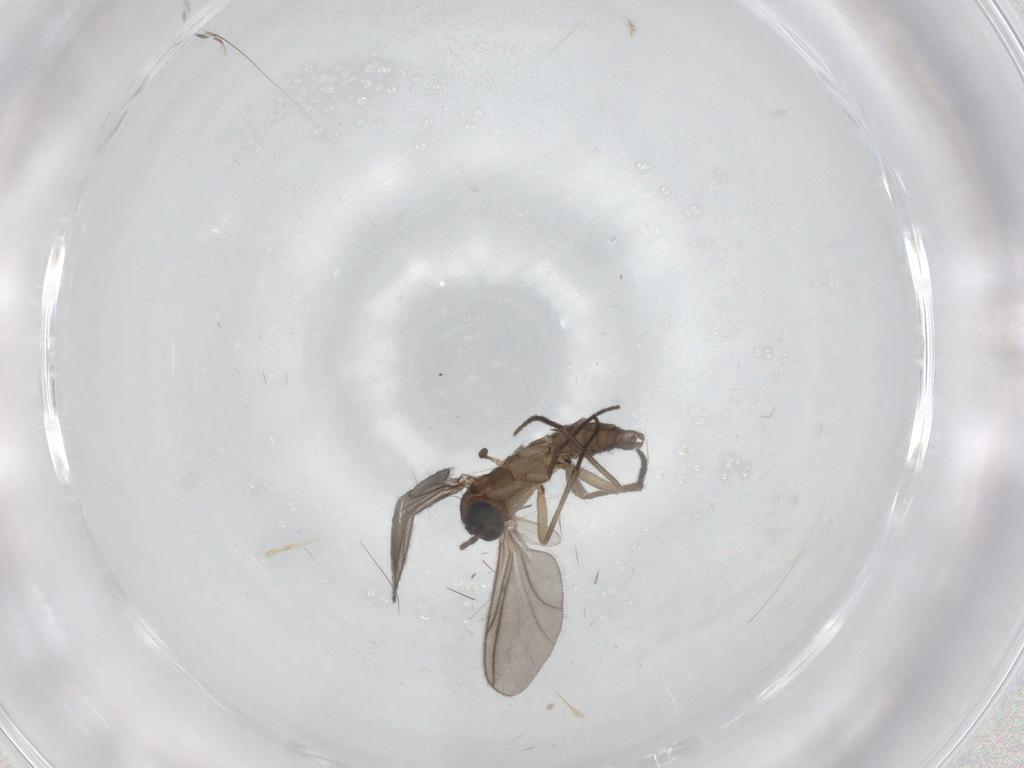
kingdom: Animalia
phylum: Arthropoda
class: Insecta
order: Diptera
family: Sciaridae
